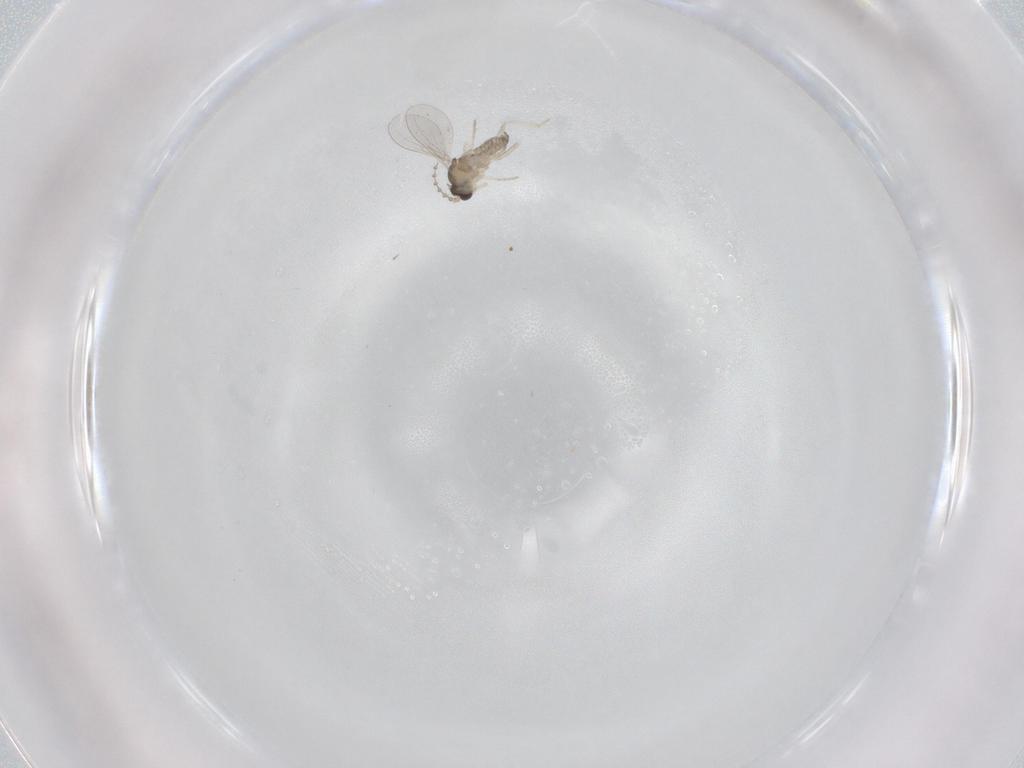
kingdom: Animalia
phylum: Arthropoda
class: Insecta
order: Diptera
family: Cecidomyiidae
